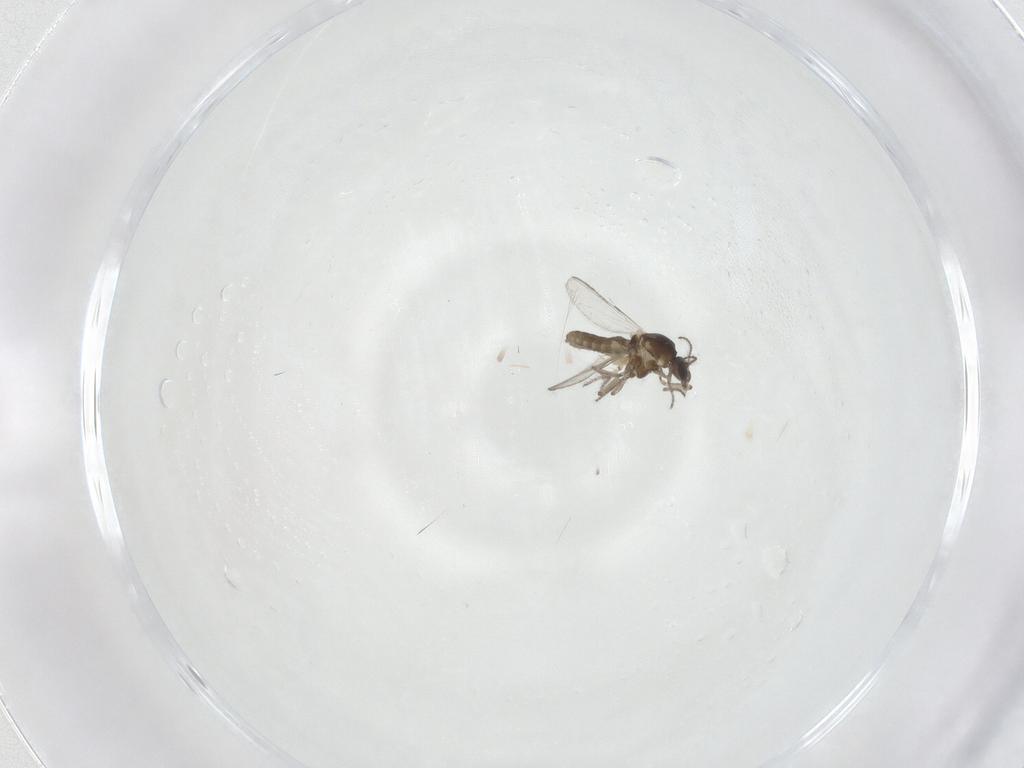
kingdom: Animalia
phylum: Arthropoda
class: Insecta
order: Diptera
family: Ceratopogonidae
